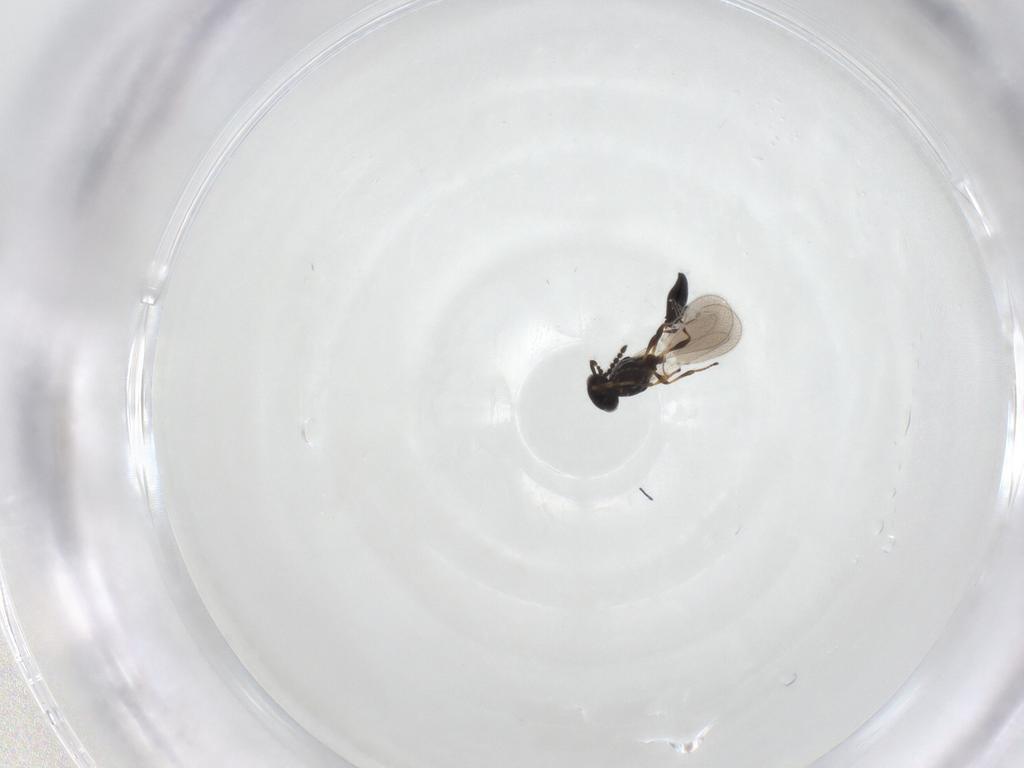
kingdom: Animalia
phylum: Arthropoda
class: Insecta
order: Hymenoptera
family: Platygastridae
